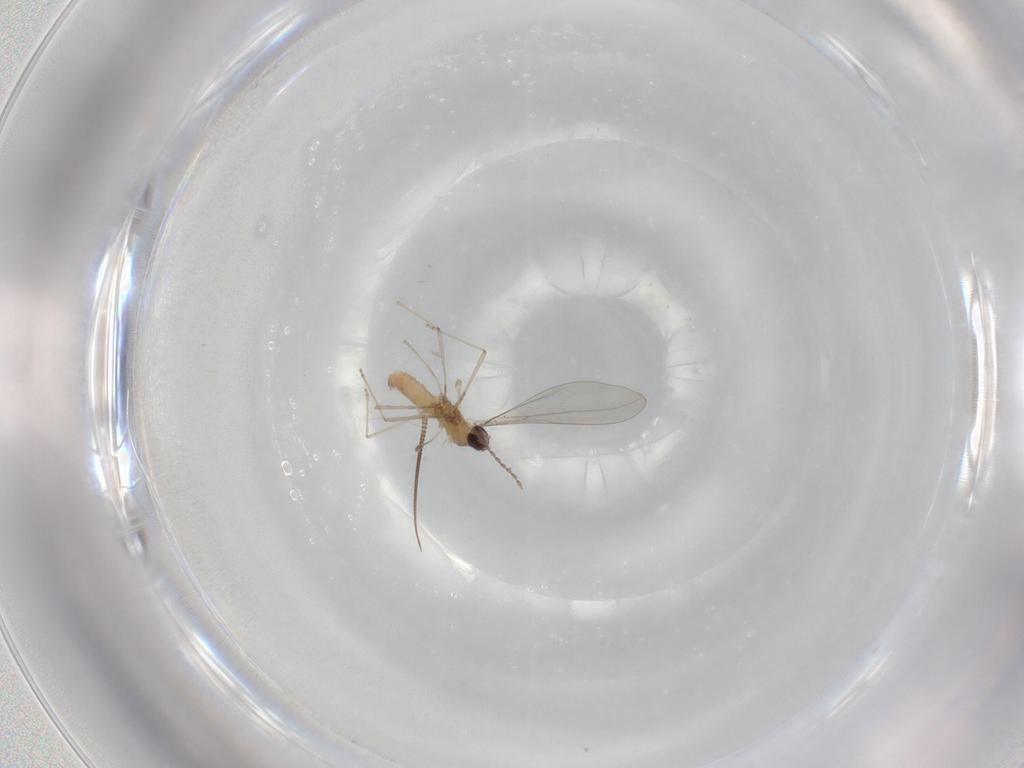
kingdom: Animalia
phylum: Arthropoda
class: Insecta
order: Diptera
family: Chironomidae
